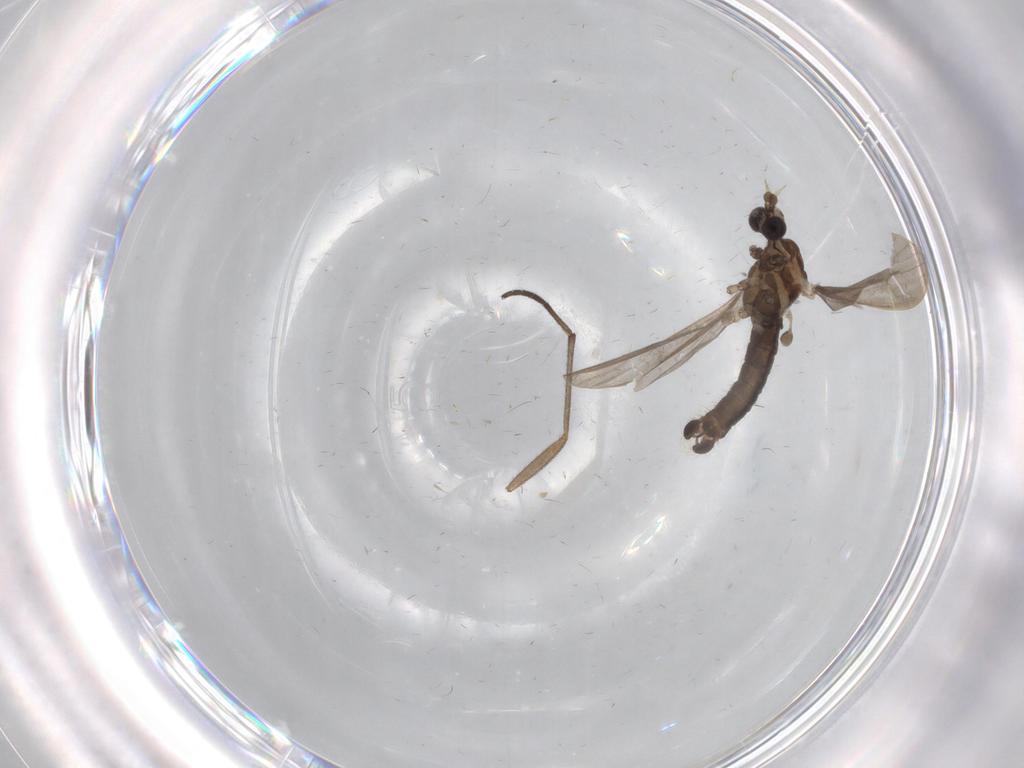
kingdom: Animalia
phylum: Arthropoda
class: Insecta
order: Diptera
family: Limoniidae
